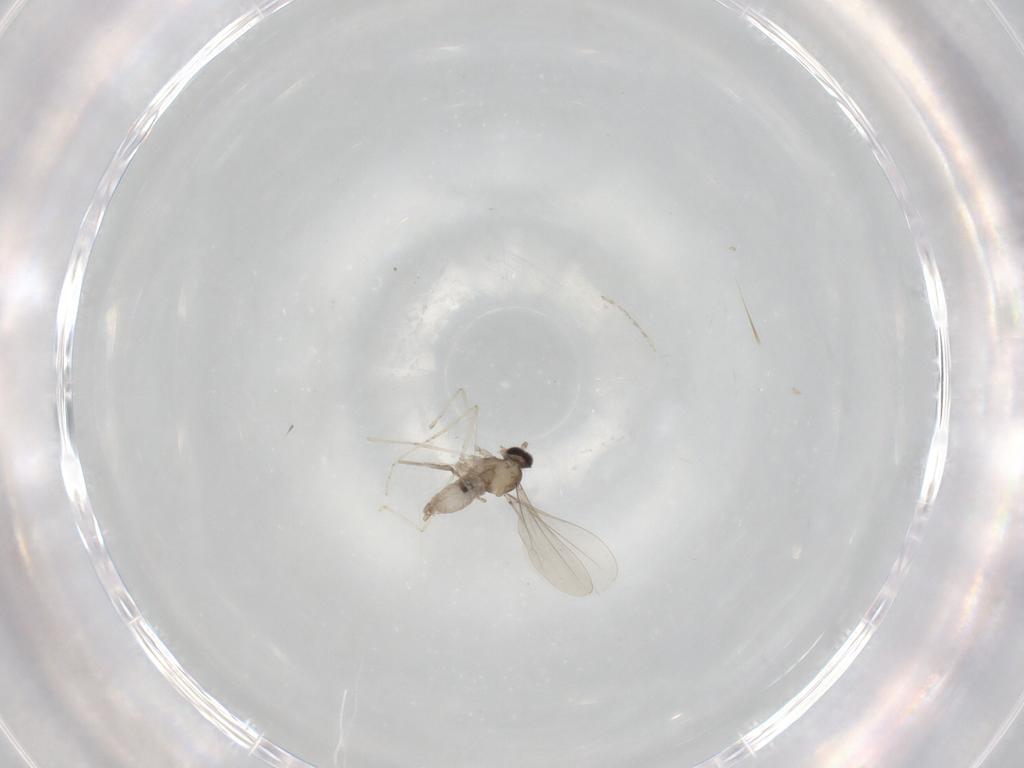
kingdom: Animalia
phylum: Arthropoda
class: Insecta
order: Diptera
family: Cecidomyiidae
